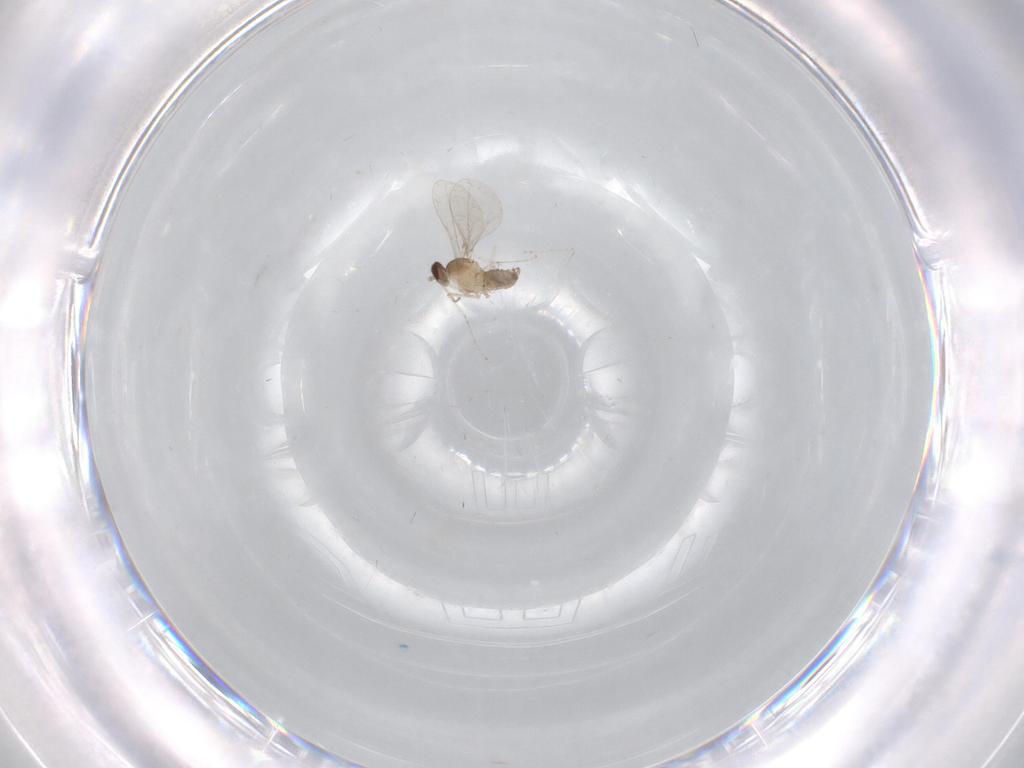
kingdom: Animalia
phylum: Arthropoda
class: Insecta
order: Diptera
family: Cecidomyiidae
